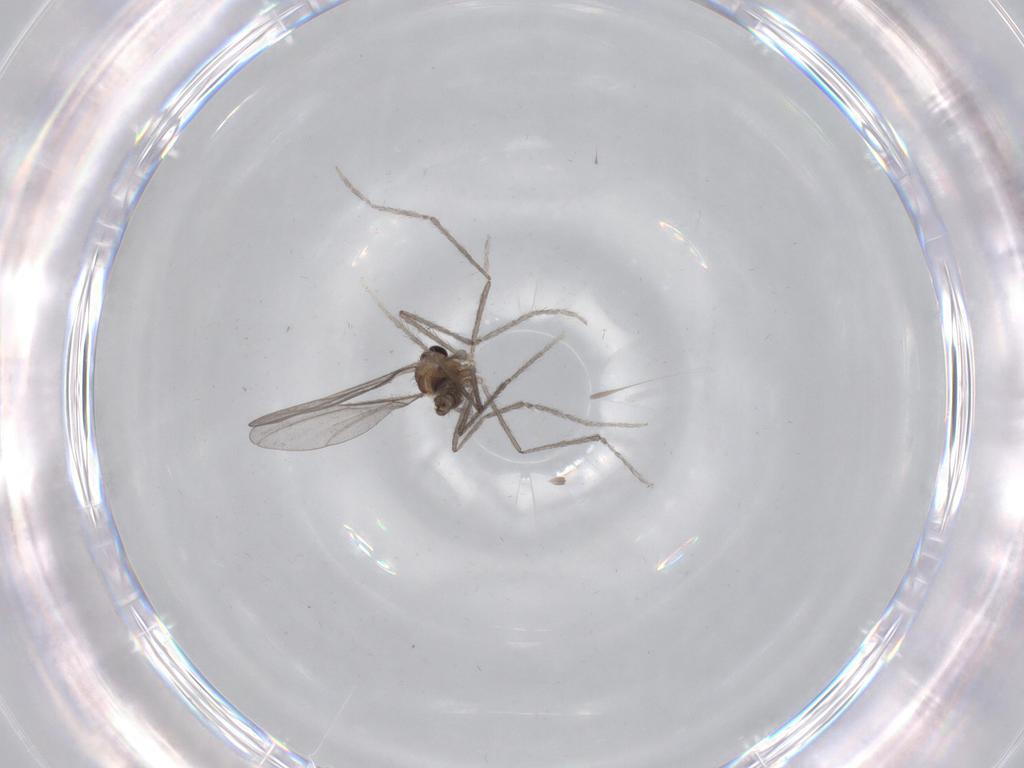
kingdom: Animalia
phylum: Arthropoda
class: Insecta
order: Diptera
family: Cecidomyiidae
